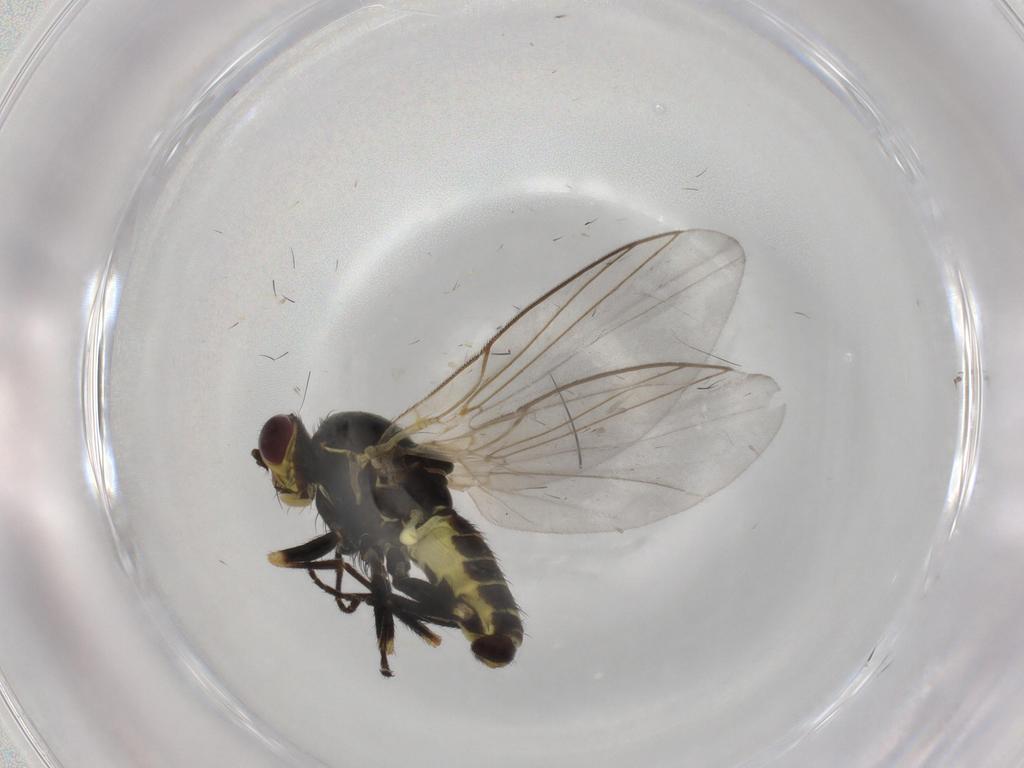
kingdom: Animalia
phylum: Arthropoda
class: Insecta
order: Diptera
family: Agromyzidae
